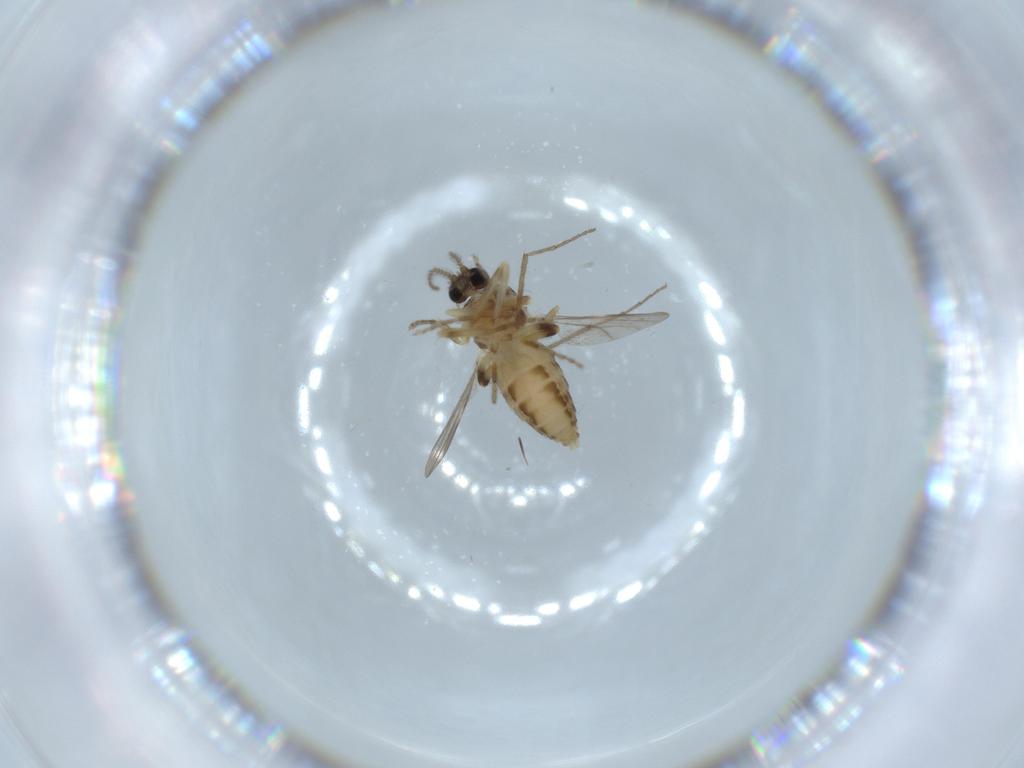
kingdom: Animalia
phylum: Arthropoda
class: Insecta
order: Diptera
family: Ceratopogonidae
